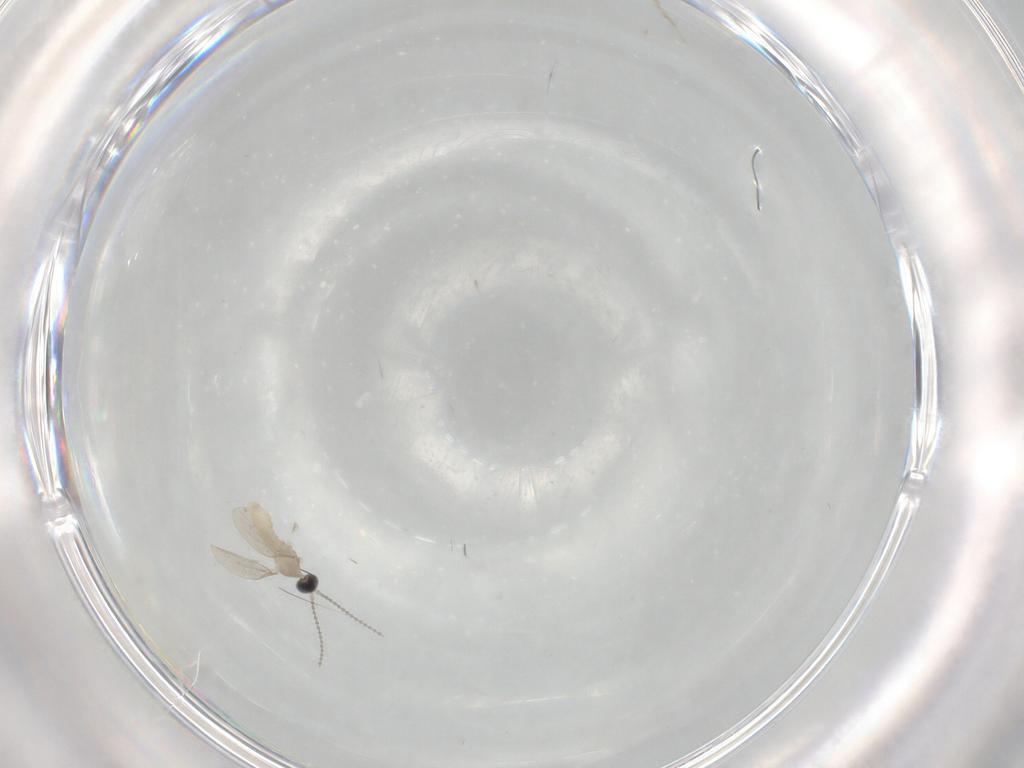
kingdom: Animalia
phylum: Arthropoda
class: Insecta
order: Diptera
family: Cecidomyiidae
